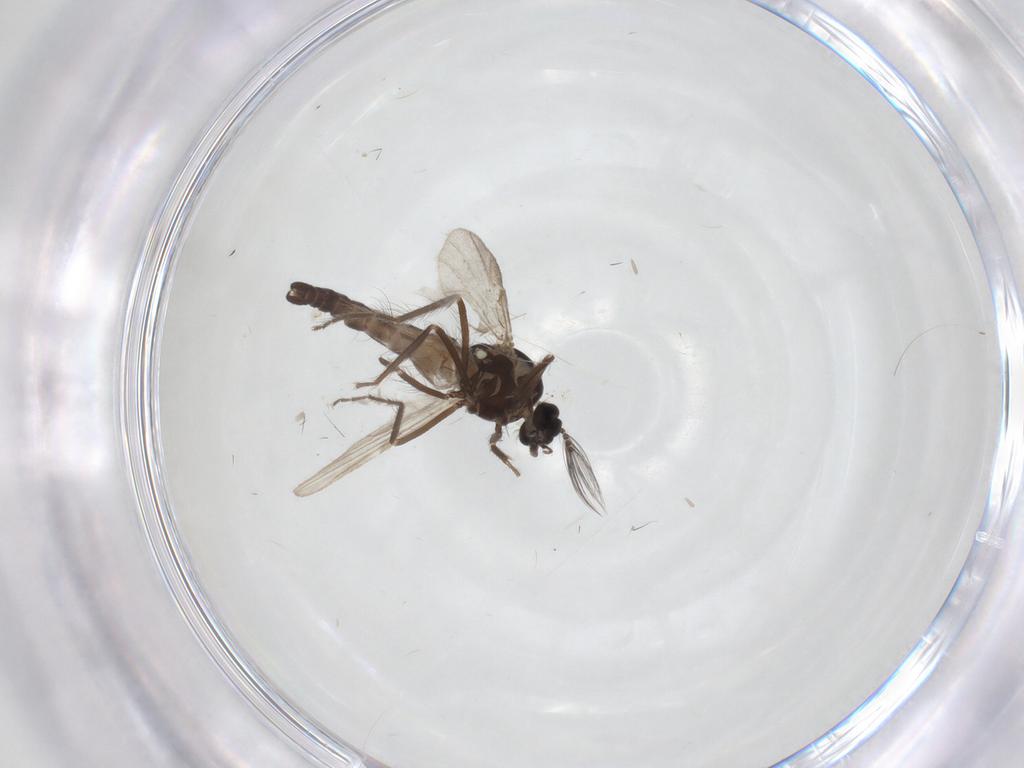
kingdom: Animalia
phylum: Arthropoda
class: Insecta
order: Diptera
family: Ceratopogonidae
